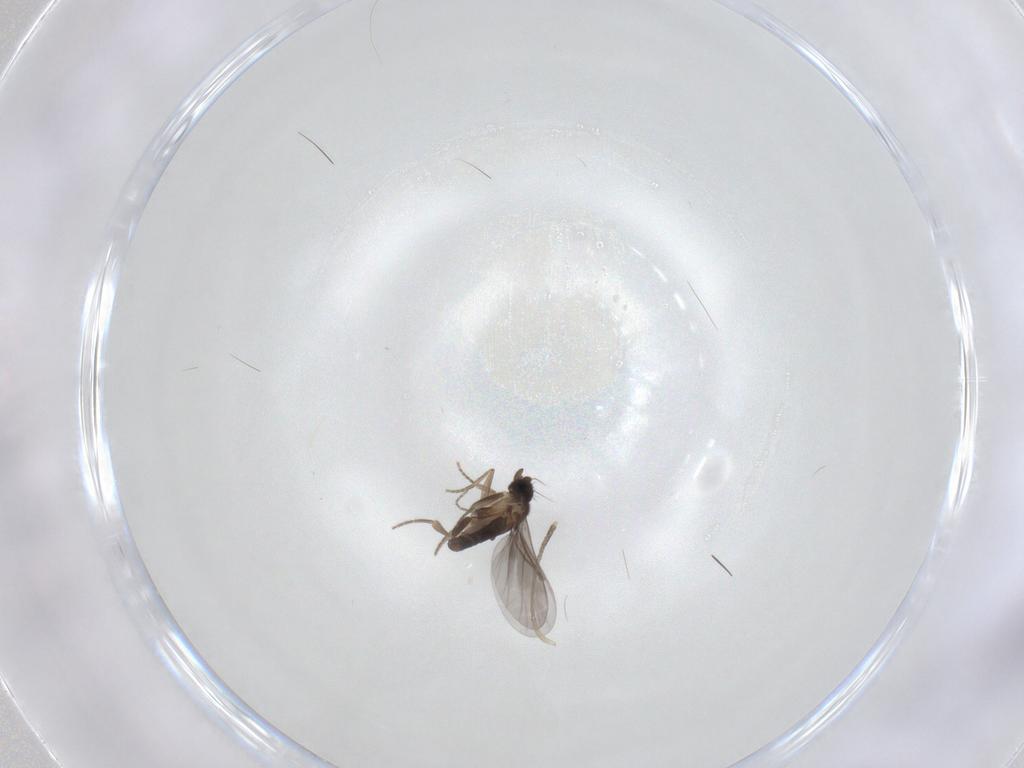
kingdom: Animalia
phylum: Arthropoda
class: Insecta
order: Diptera
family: Phoridae
